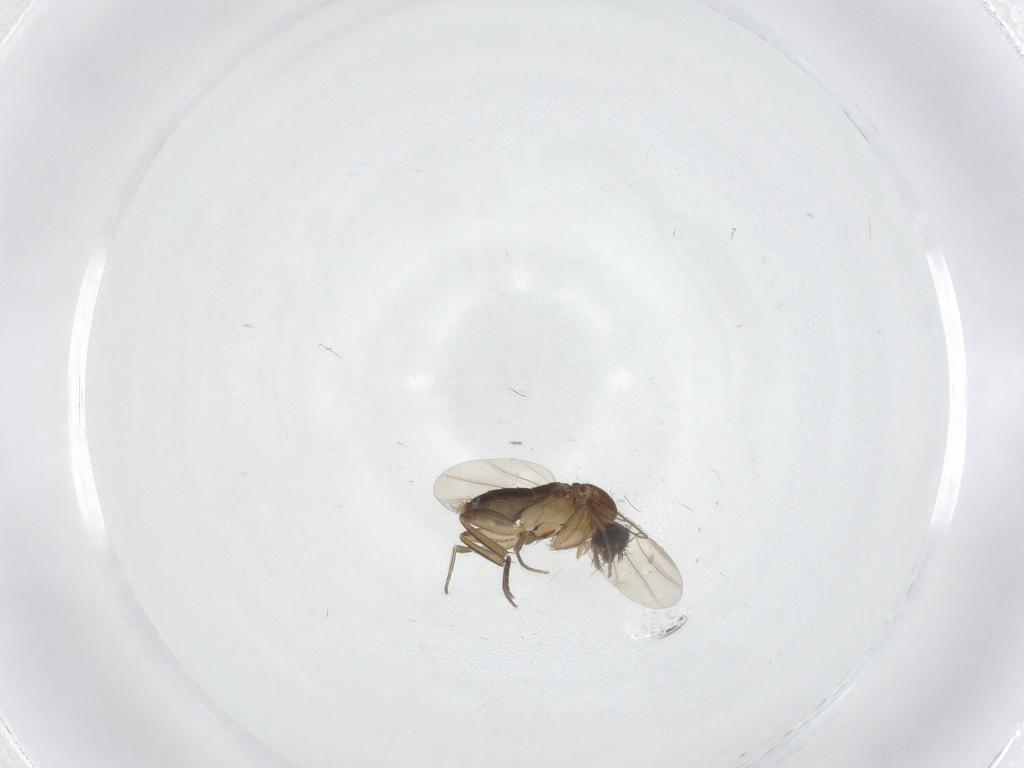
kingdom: Animalia
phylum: Arthropoda
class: Insecta
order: Diptera
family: Phoridae
